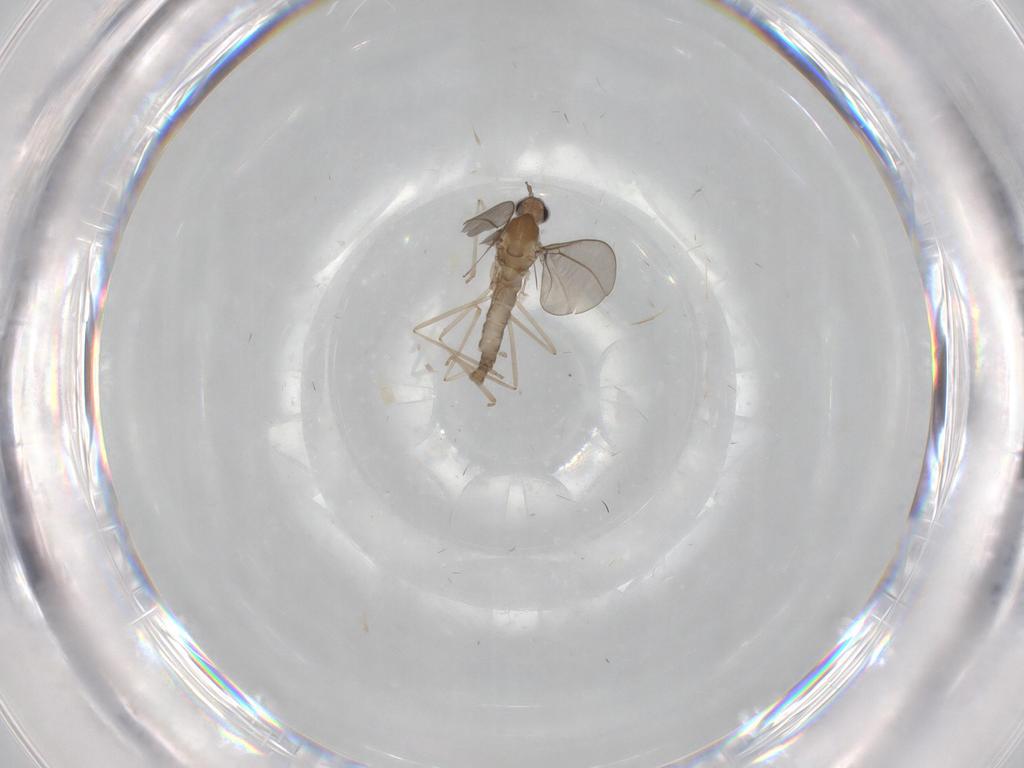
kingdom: Animalia
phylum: Arthropoda
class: Insecta
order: Diptera
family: Cecidomyiidae
